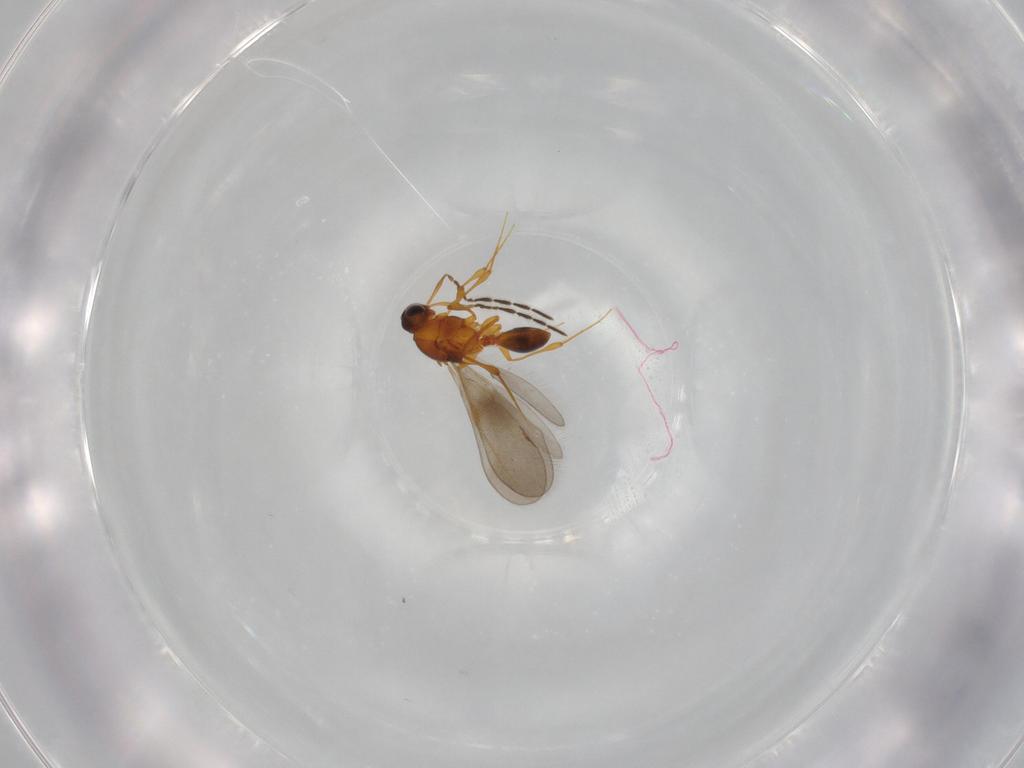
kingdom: Animalia
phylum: Arthropoda
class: Insecta
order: Hymenoptera
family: Platygastridae
